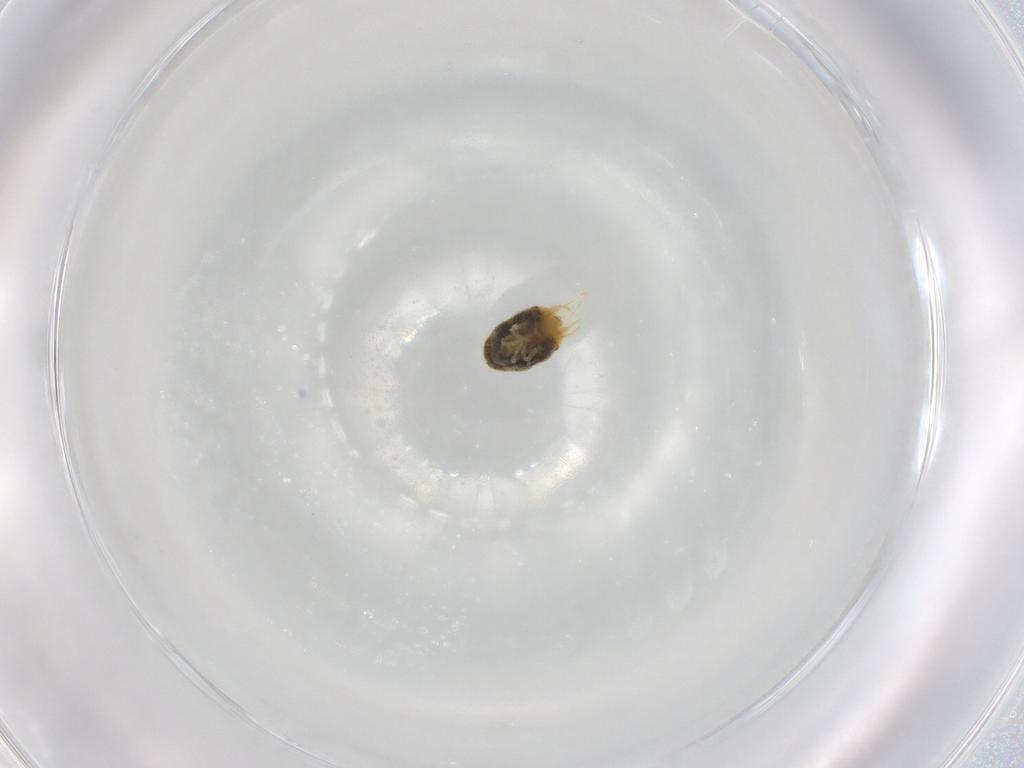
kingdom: Animalia
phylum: Arthropoda
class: Arachnida
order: Trombidiformes
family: Tetranychidae
